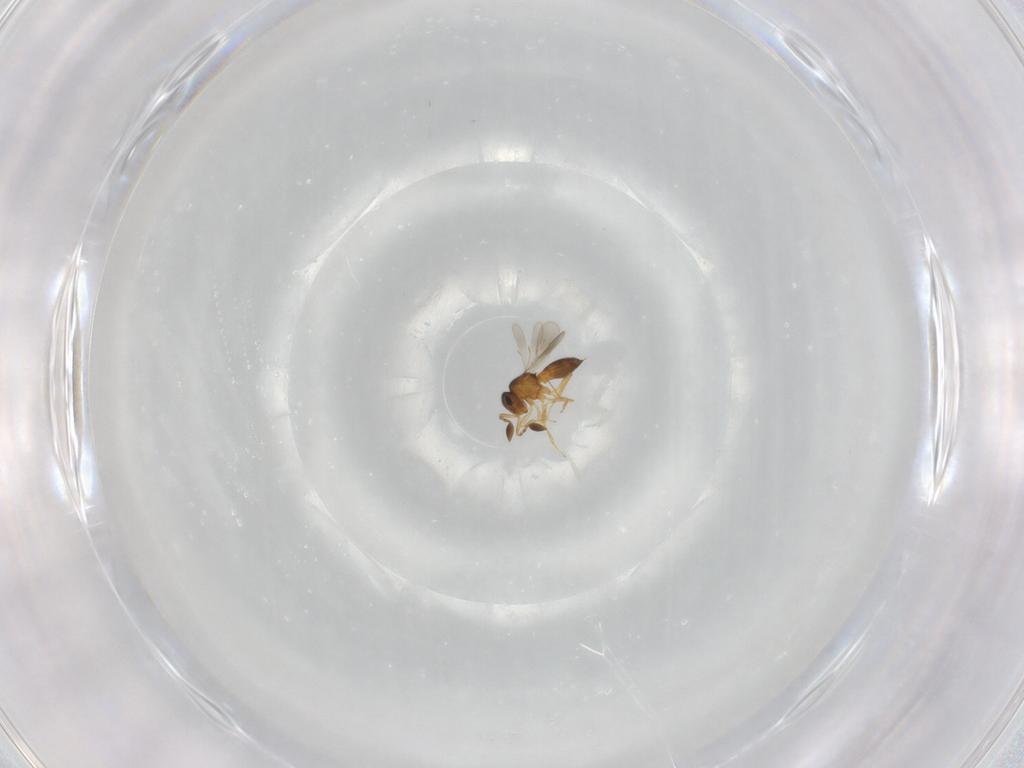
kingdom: Animalia
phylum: Arthropoda
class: Insecta
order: Hymenoptera
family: Scelionidae
